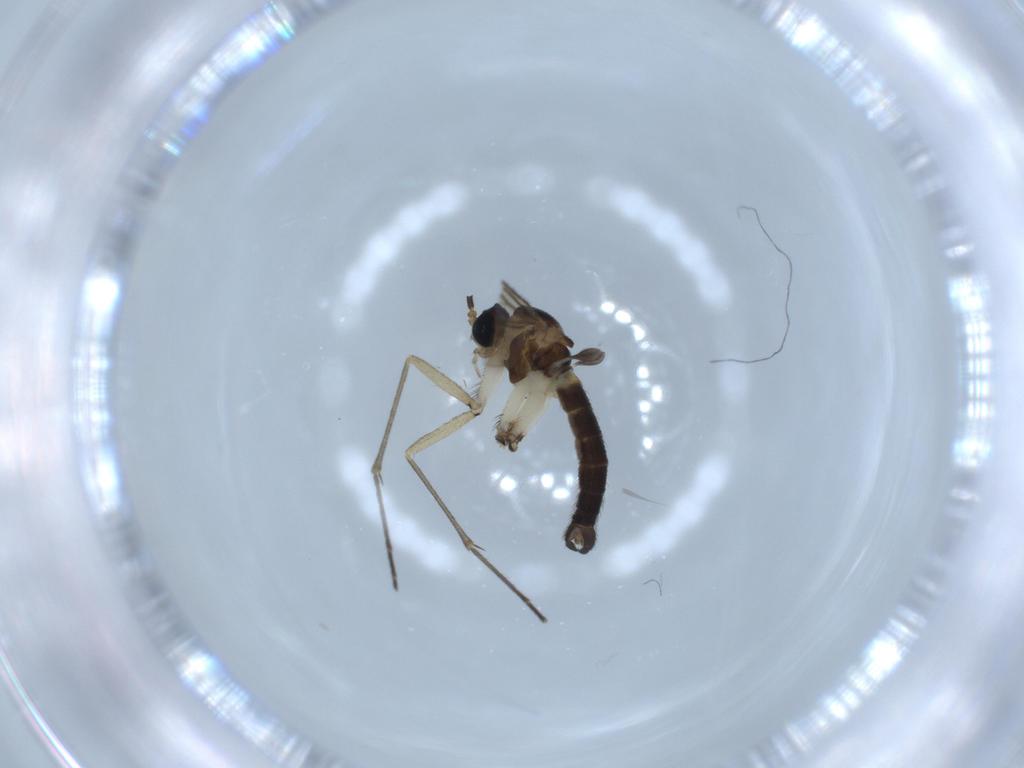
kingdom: Animalia
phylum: Arthropoda
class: Insecta
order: Diptera
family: Sciaridae
